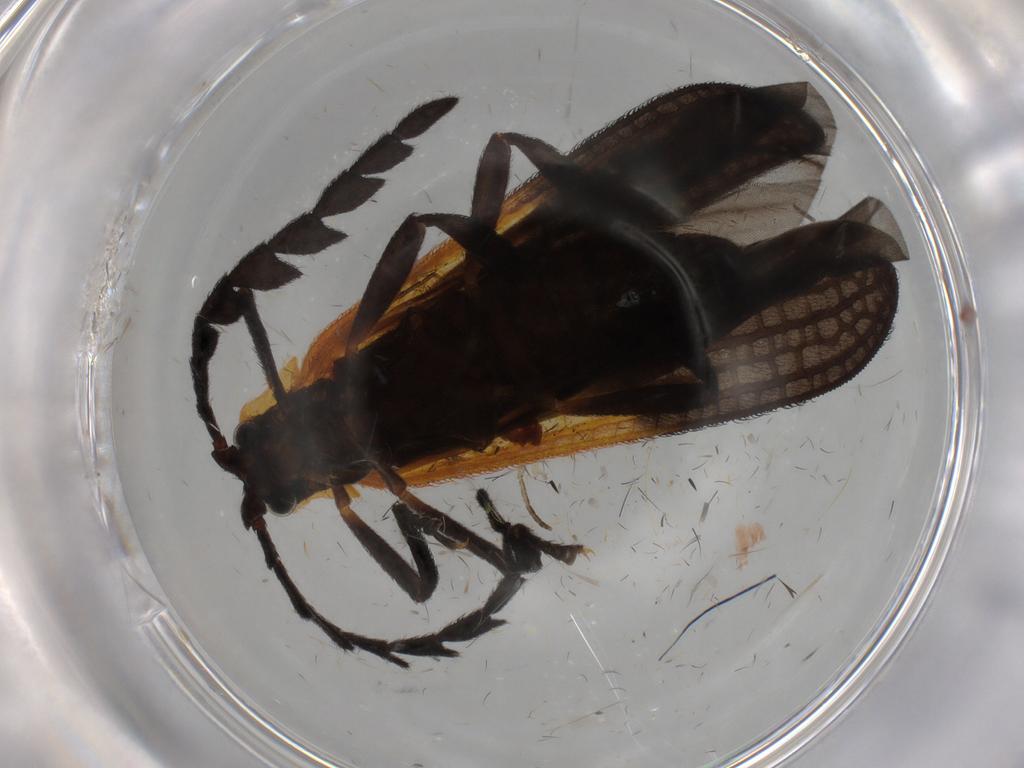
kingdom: Animalia
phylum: Arthropoda
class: Insecta
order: Coleoptera
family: Lycidae
